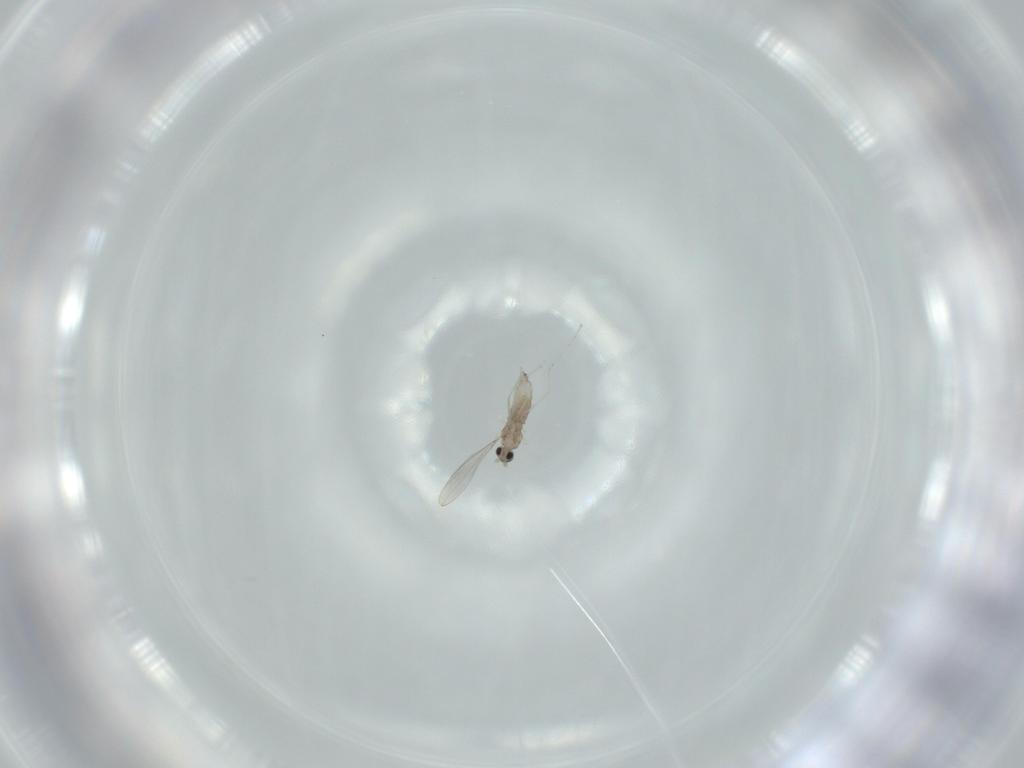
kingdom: Animalia
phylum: Arthropoda
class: Insecta
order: Diptera
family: Cecidomyiidae
